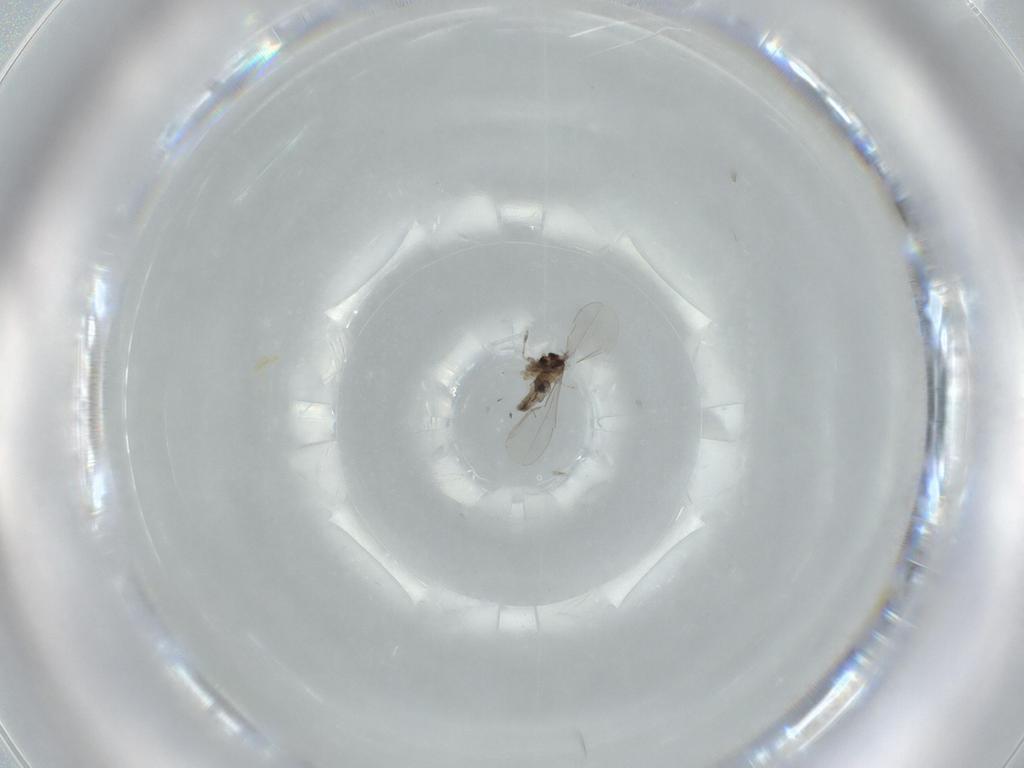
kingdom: Animalia
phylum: Arthropoda
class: Insecta
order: Diptera
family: Cecidomyiidae
